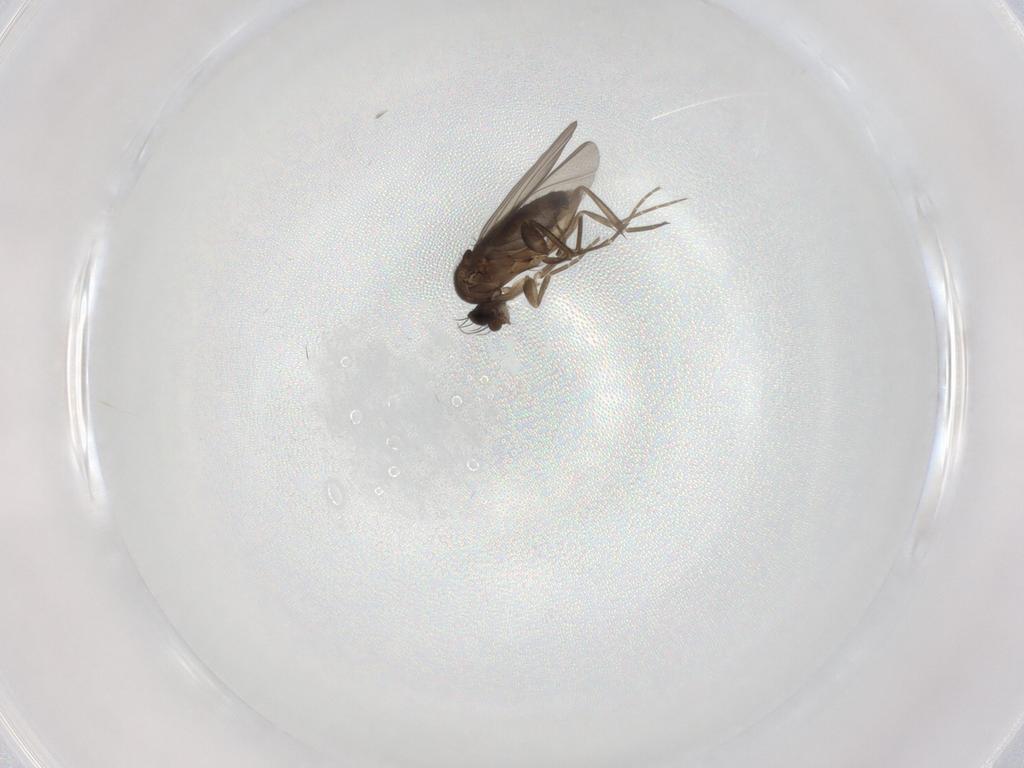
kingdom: Animalia
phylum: Arthropoda
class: Insecta
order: Diptera
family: Phoridae
